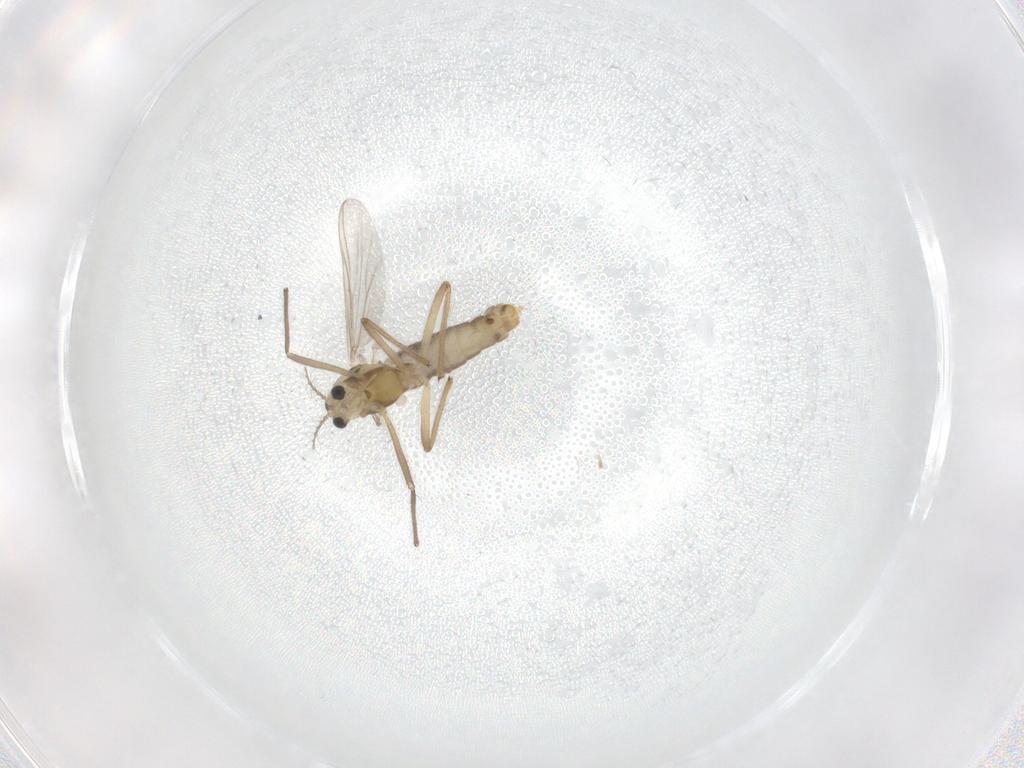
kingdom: Animalia
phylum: Arthropoda
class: Insecta
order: Diptera
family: Chironomidae
